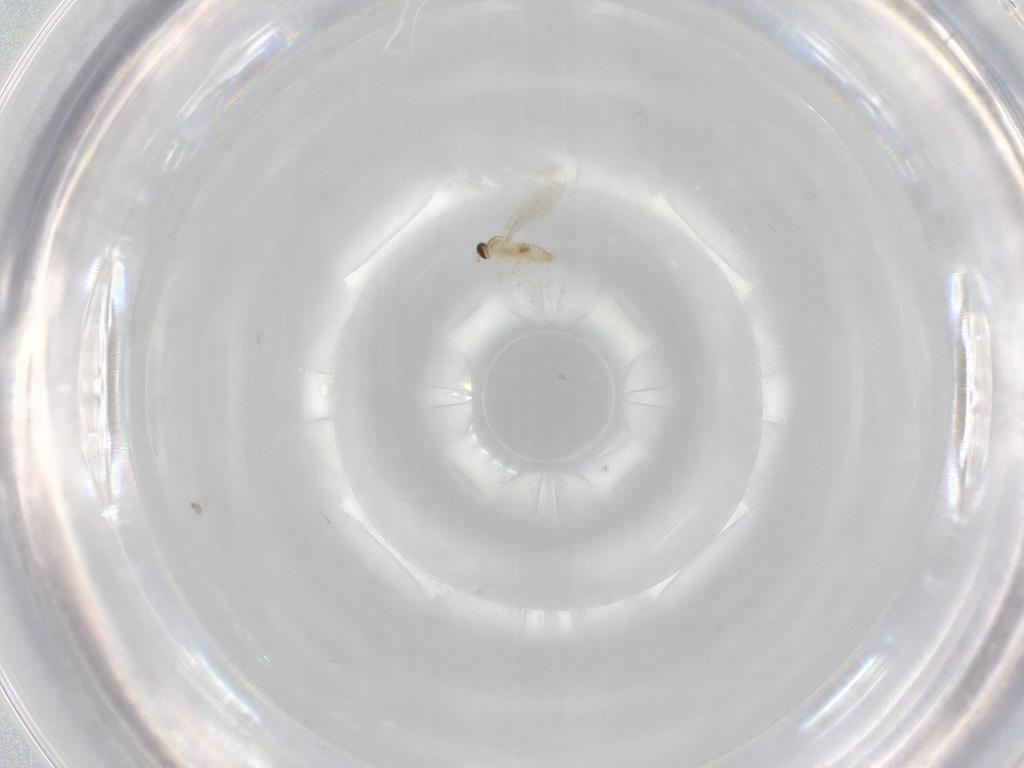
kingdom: Animalia
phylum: Arthropoda
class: Insecta
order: Diptera
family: Cecidomyiidae
